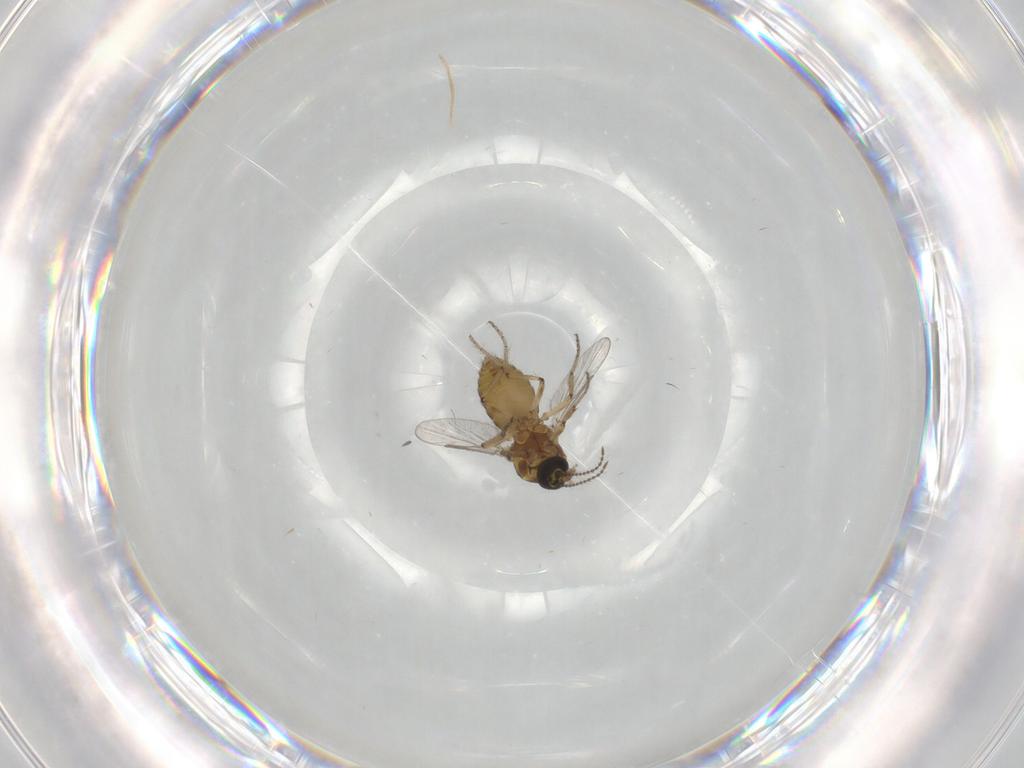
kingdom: Animalia
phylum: Arthropoda
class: Insecta
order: Diptera
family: Ceratopogonidae
